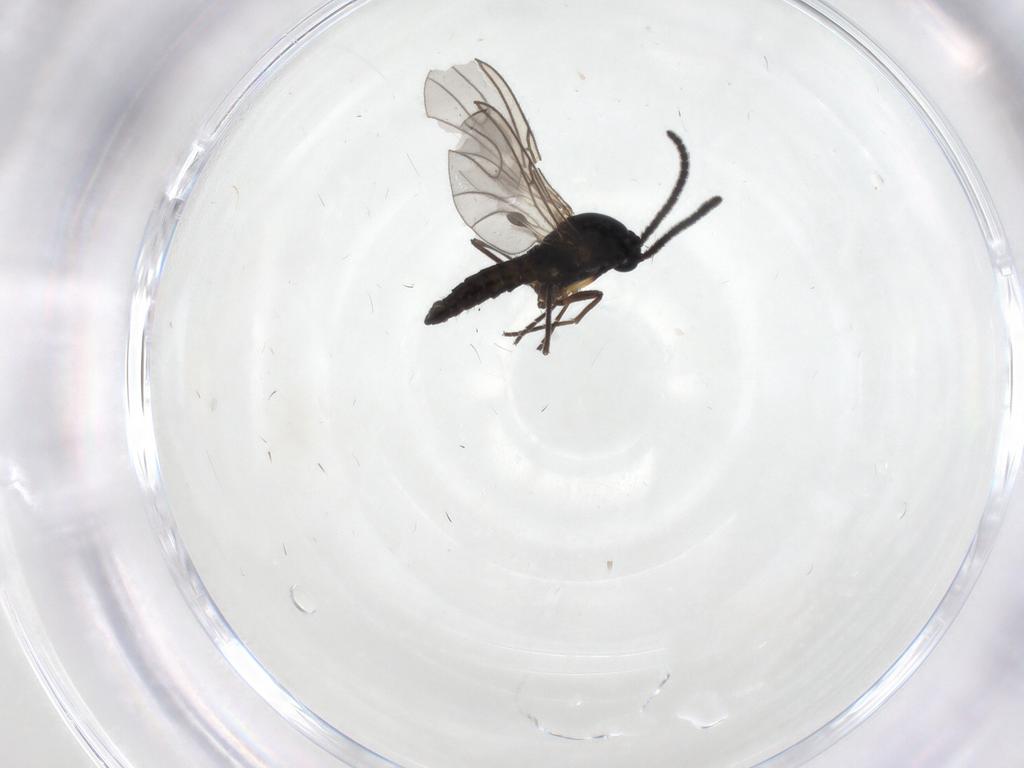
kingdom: Animalia
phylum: Arthropoda
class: Insecta
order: Diptera
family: Sciaridae
